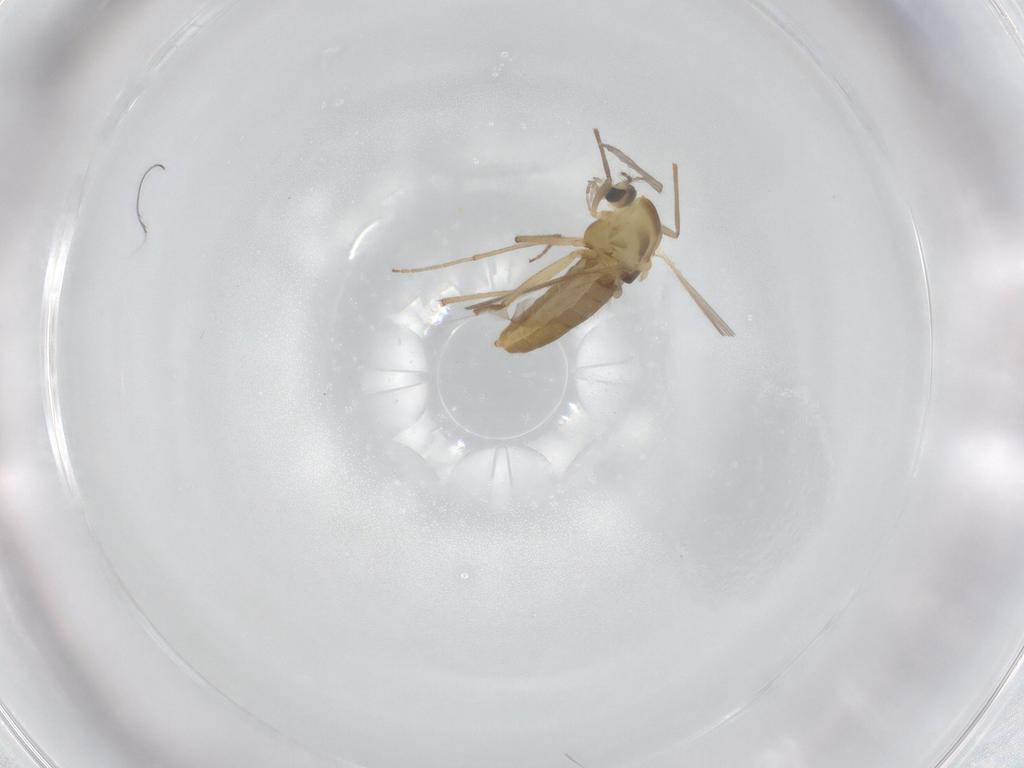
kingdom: Animalia
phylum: Arthropoda
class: Insecta
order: Diptera
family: Chironomidae
